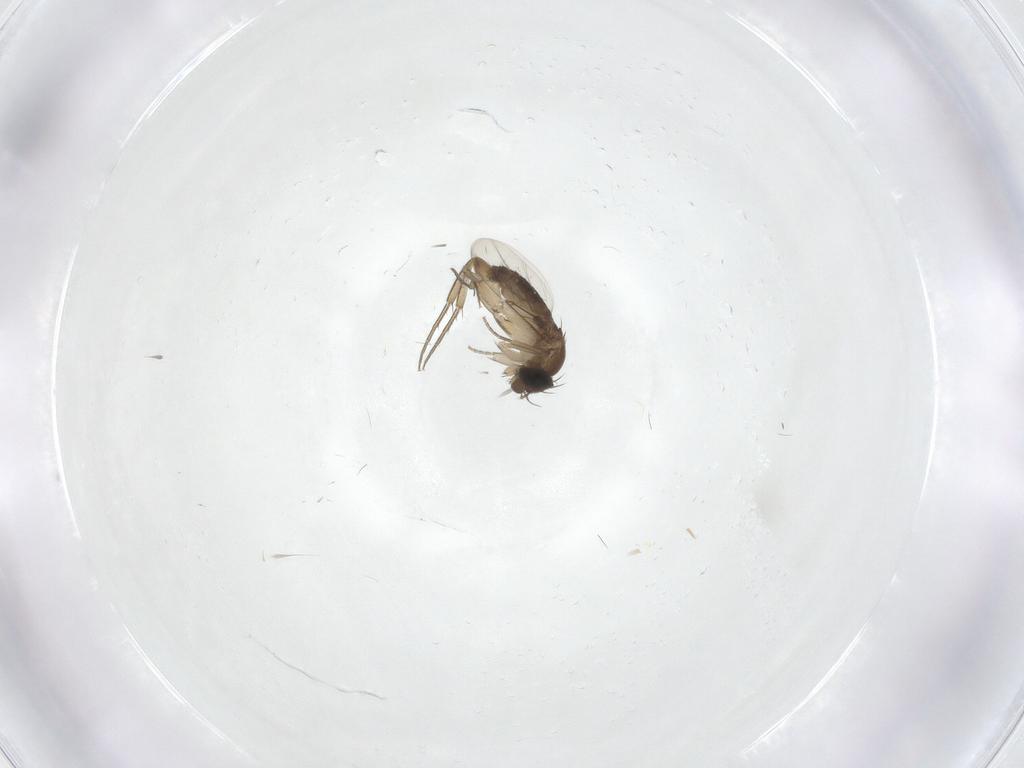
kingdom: Animalia
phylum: Arthropoda
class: Insecta
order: Diptera
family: Phoridae
